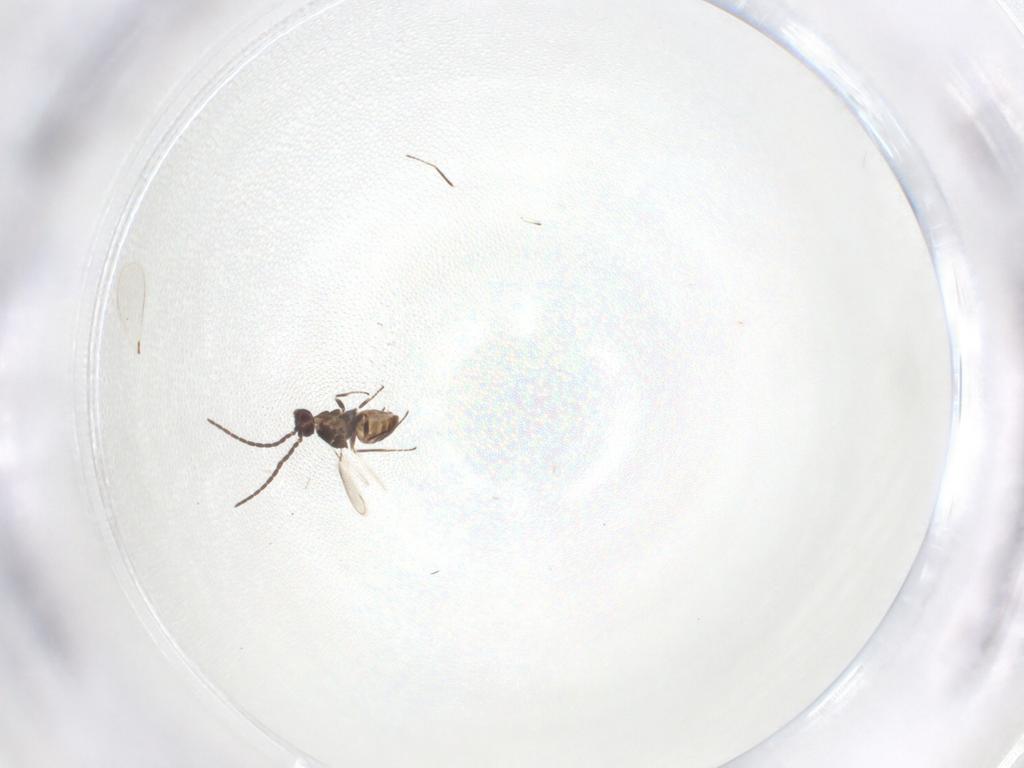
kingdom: Animalia
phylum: Arthropoda
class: Insecta
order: Hymenoptera
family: Mymaridae
